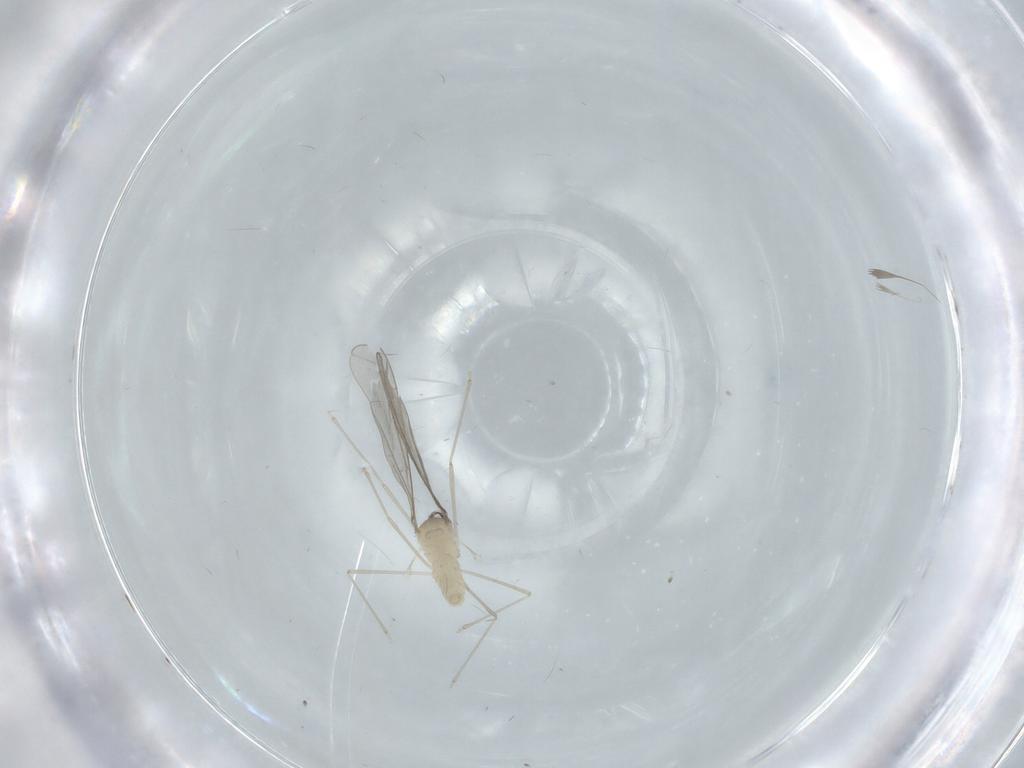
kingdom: Animalia
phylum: Arthropoda
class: Insecta
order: Diptera
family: Cecidomyiidae
